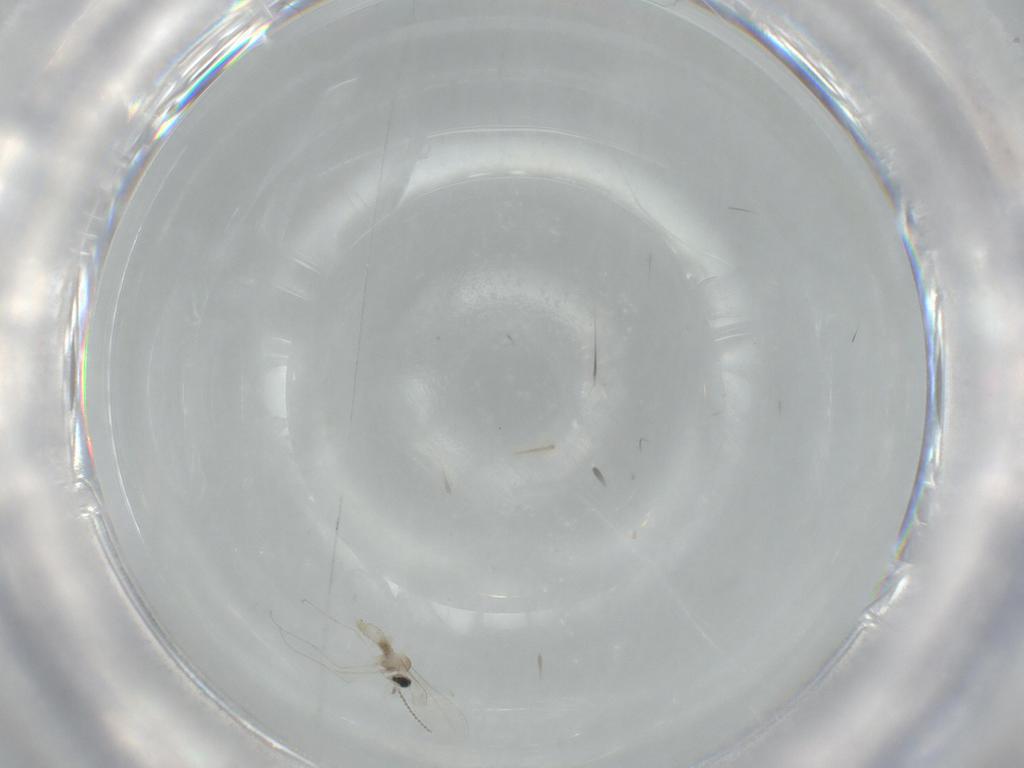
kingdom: Animalia
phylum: Arthropoda
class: Insecta
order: Diptera
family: Cecidomyiidae
